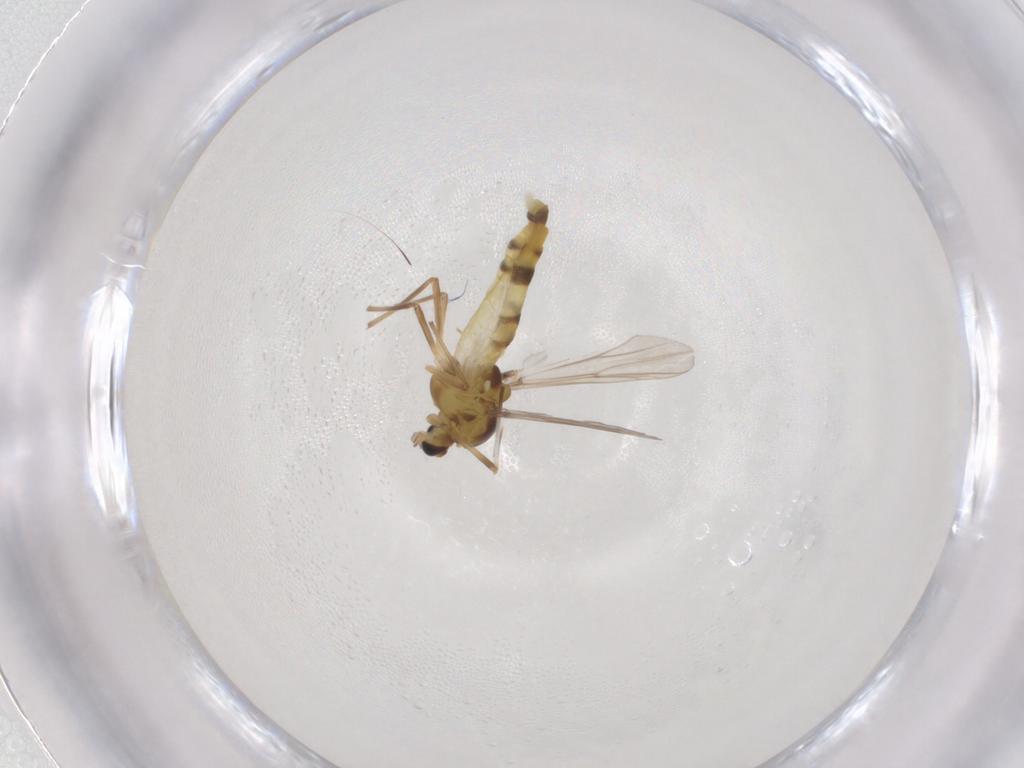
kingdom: Animalia
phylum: Arthropoda
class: Insecta
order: Diptera
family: Chironomidae
